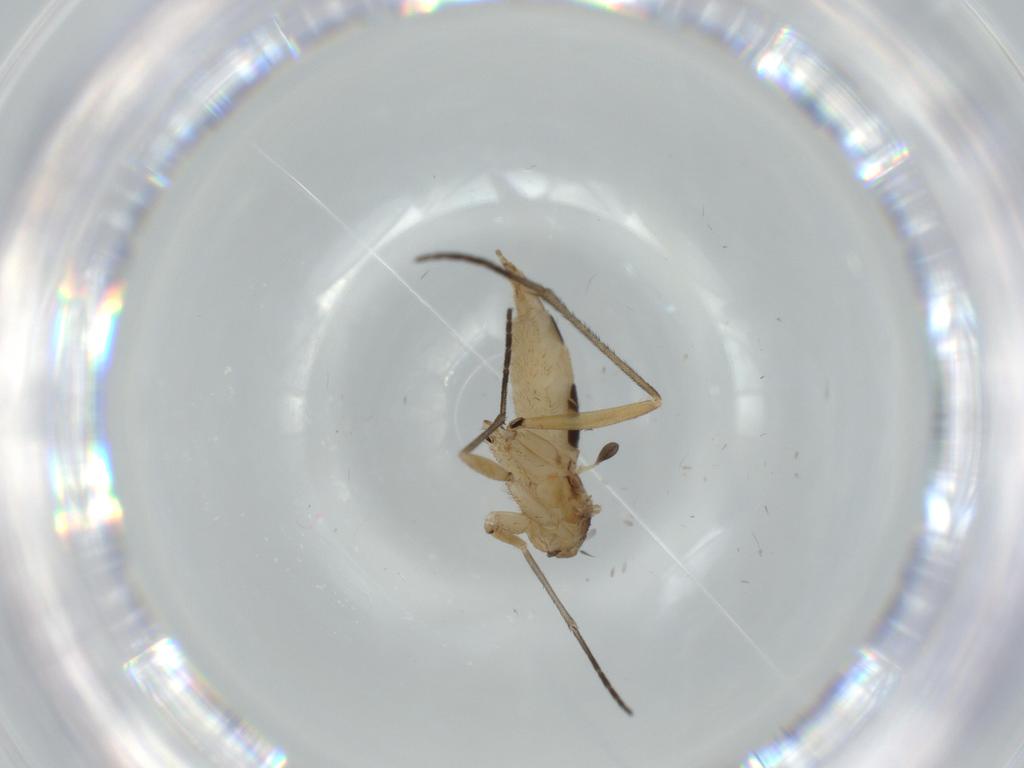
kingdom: Animalia
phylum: Arthropoda
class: Insecta
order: Diptera
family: Sciaridae
